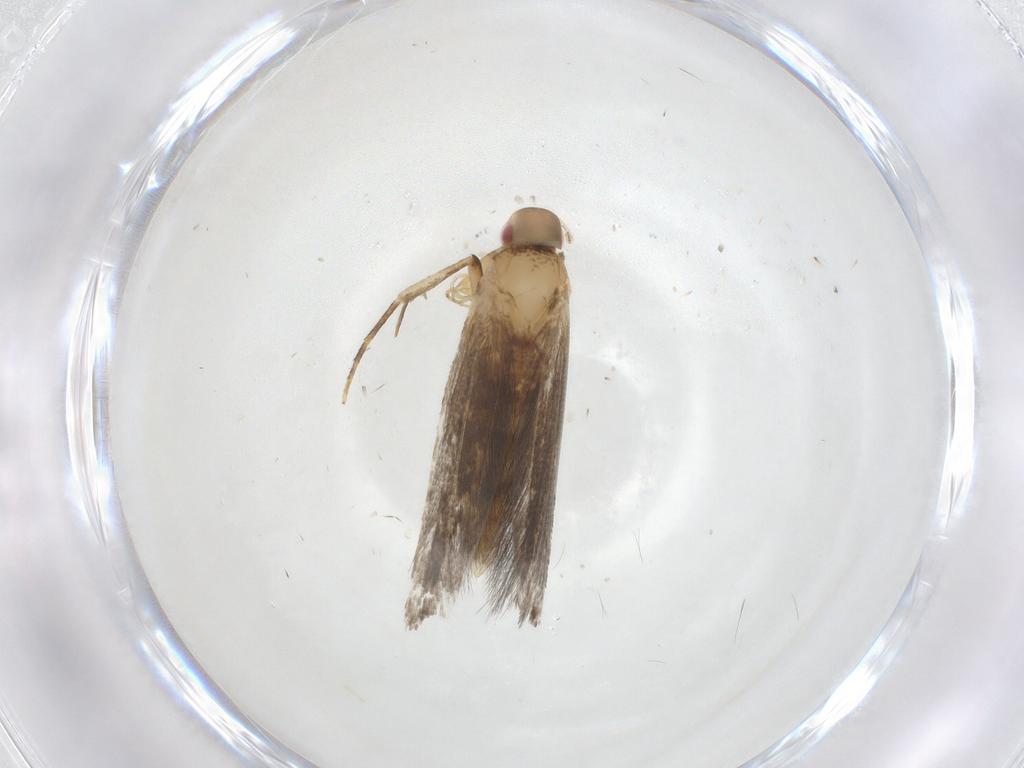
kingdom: Animalia
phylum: Arthropoda
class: Insecta
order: Lepidoptera
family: Cosmopterigidae
